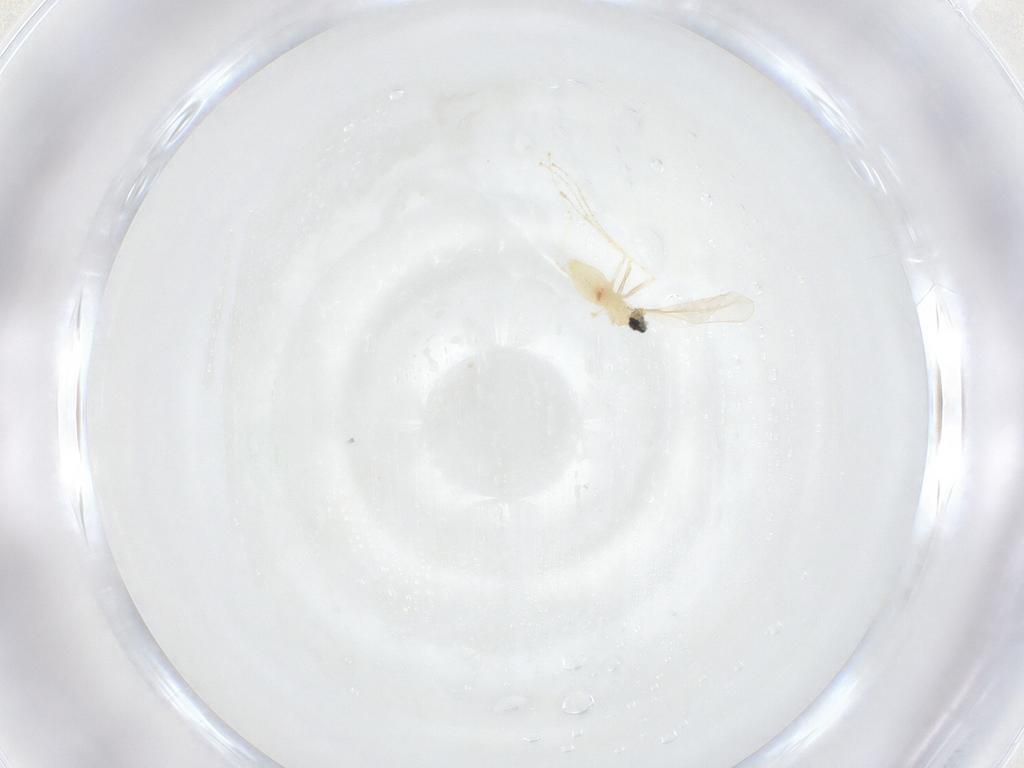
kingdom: Animalia
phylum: Arthropoda
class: Insecta
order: Diptera
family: Cecidomyiidae
